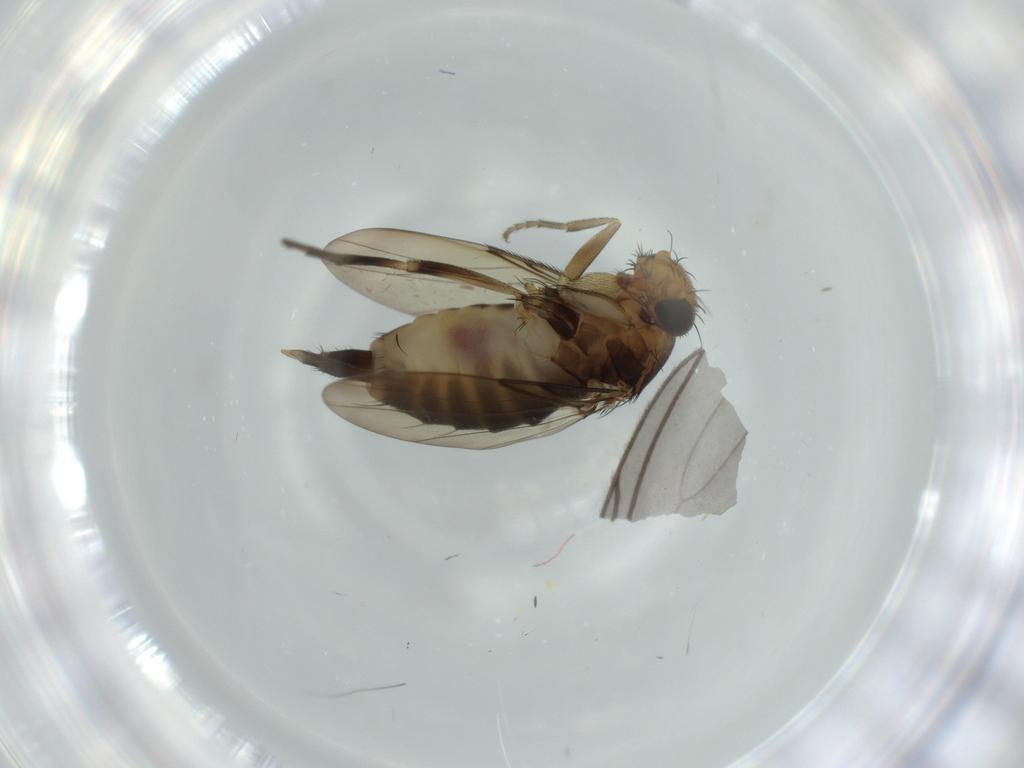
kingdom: Animalia
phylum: Arthropoda
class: Insecta
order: Diptera
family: Phoridae
